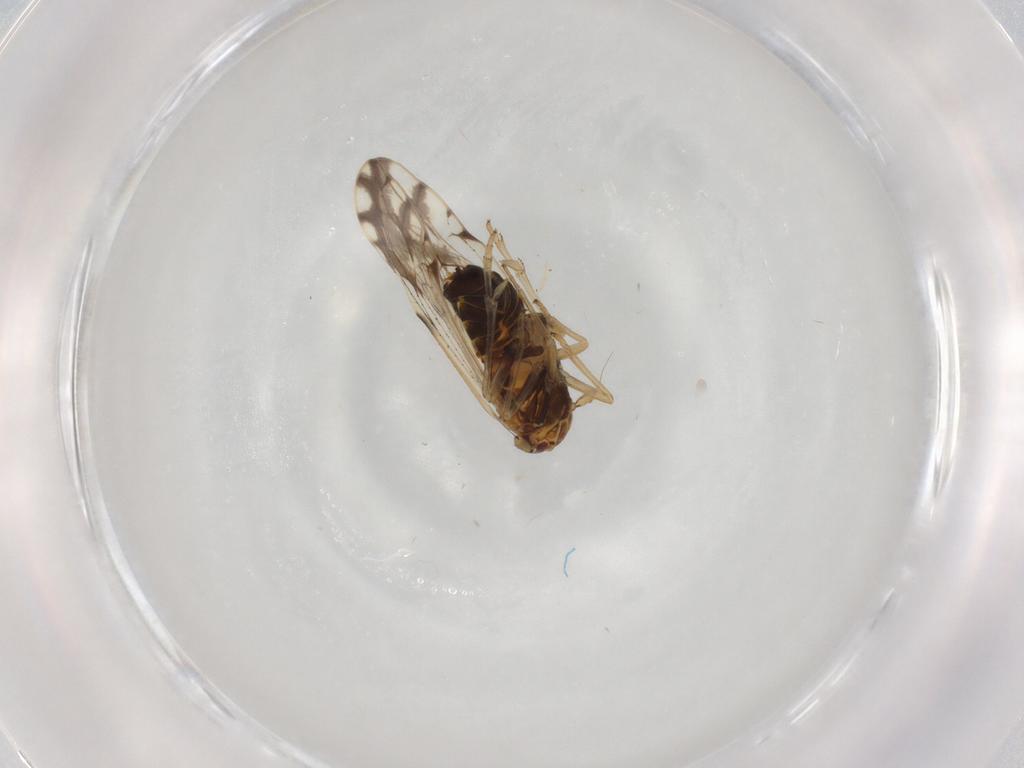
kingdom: Animalia
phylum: Arthropoda
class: Insecta
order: Hemiptera
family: Delphacidae
